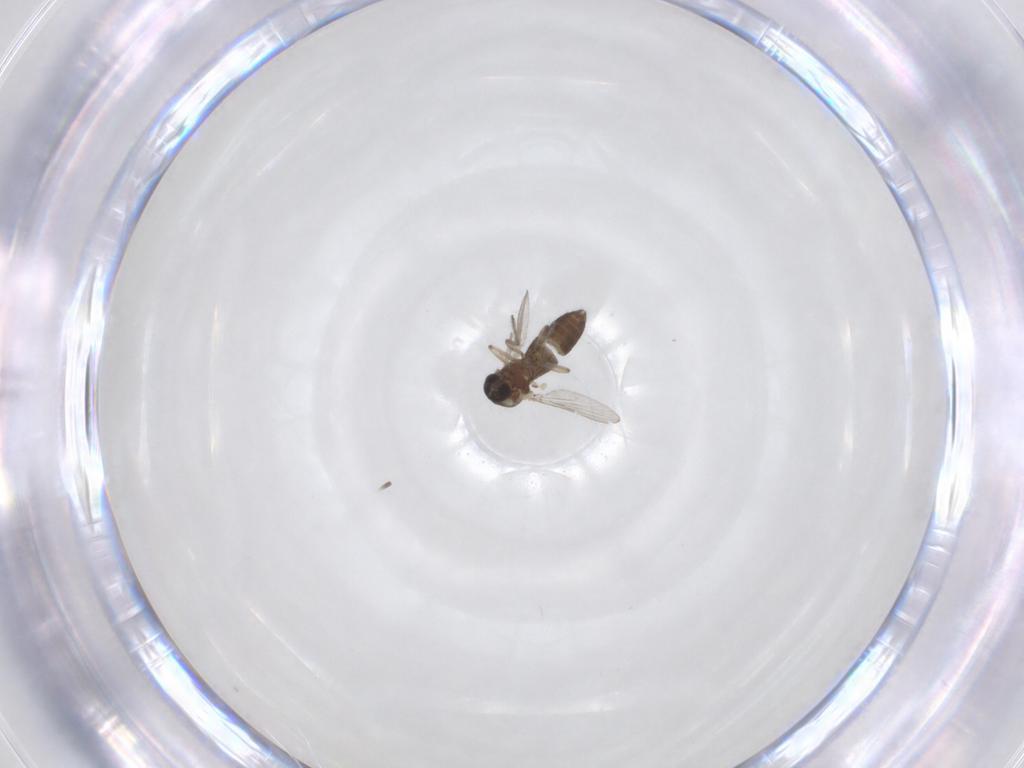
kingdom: Animalia
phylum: Arthropoda
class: Insecta
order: Diptera
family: Ceratopogonidae
